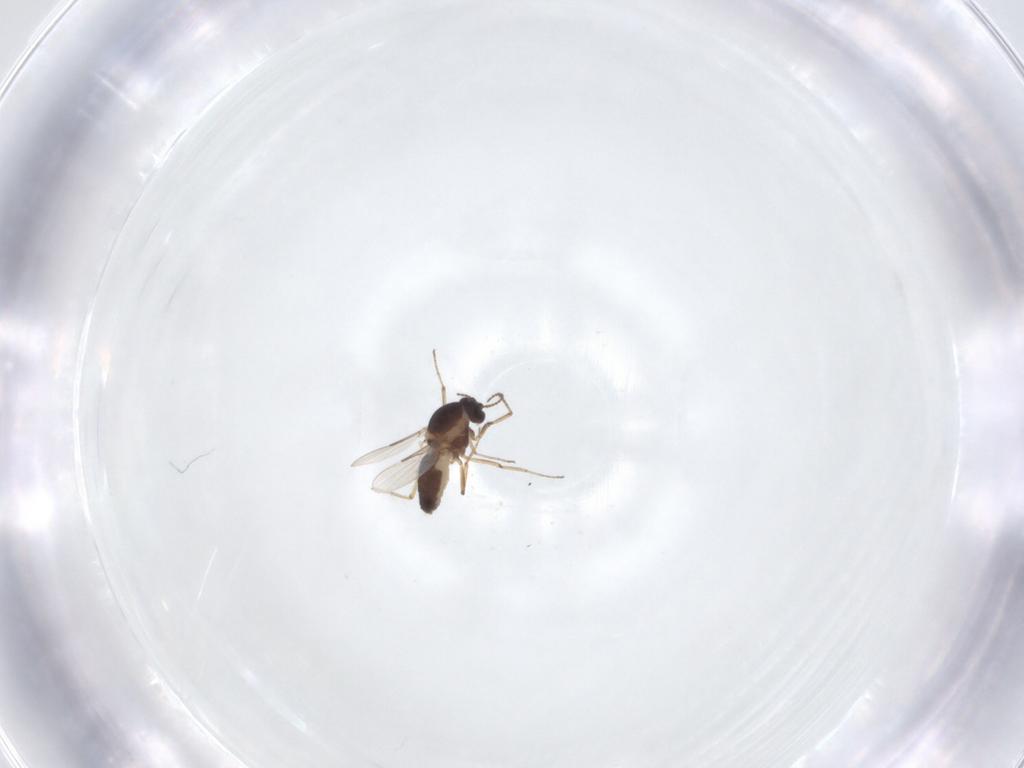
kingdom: Animalia
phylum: Arthropoda
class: Insecta
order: Diptera
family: Ceratopogonidae
